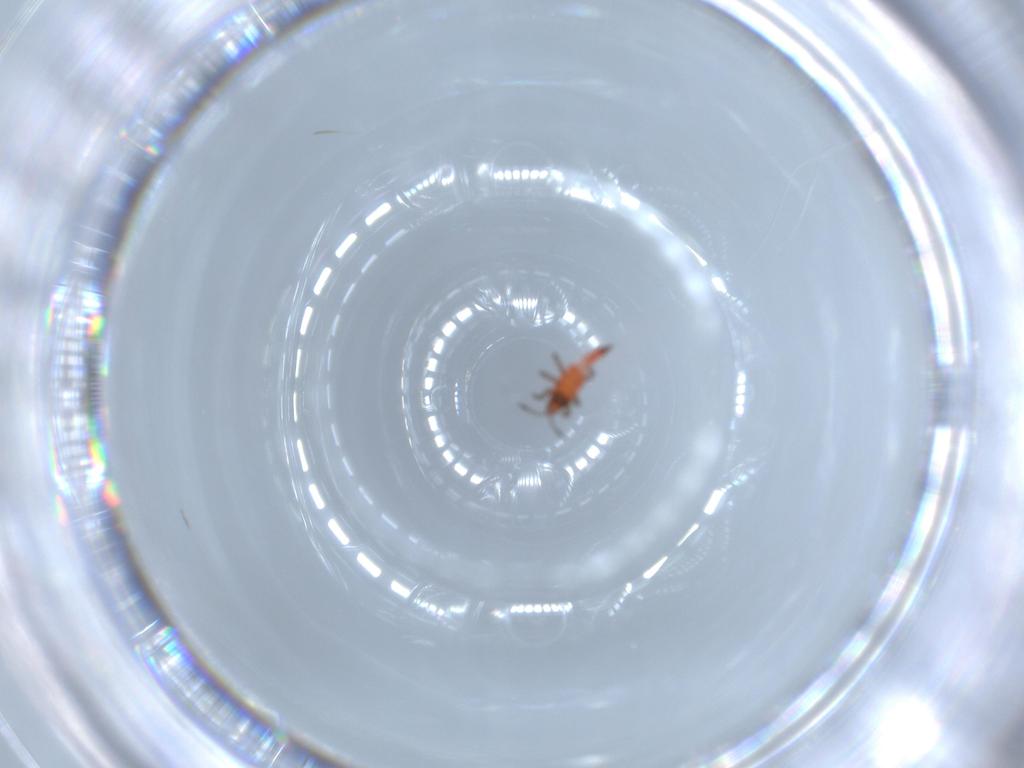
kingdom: Animalia
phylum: Arthropoda
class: Insecta
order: Thysanoptera
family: Phlaeothripidae
